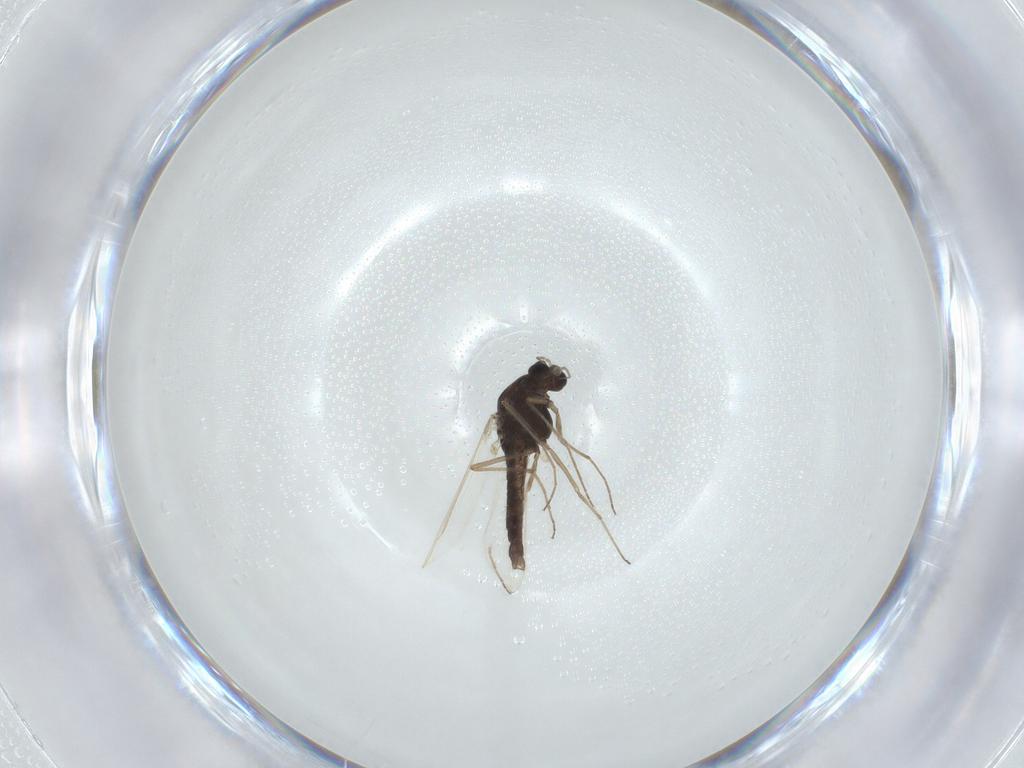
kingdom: Animalia
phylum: Arthropoda
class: Insecta
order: Diptera
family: Chironomidae
